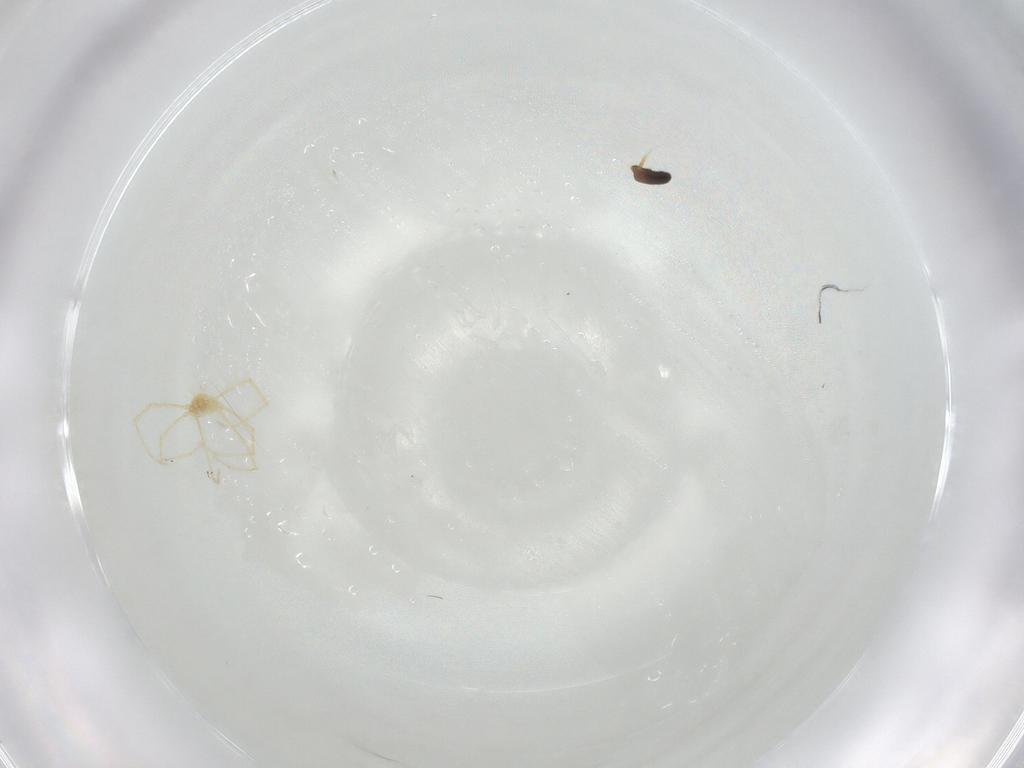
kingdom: Animalia
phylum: Arthropoda
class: Arachnida
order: Trombidiformes
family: Erythraeidae
